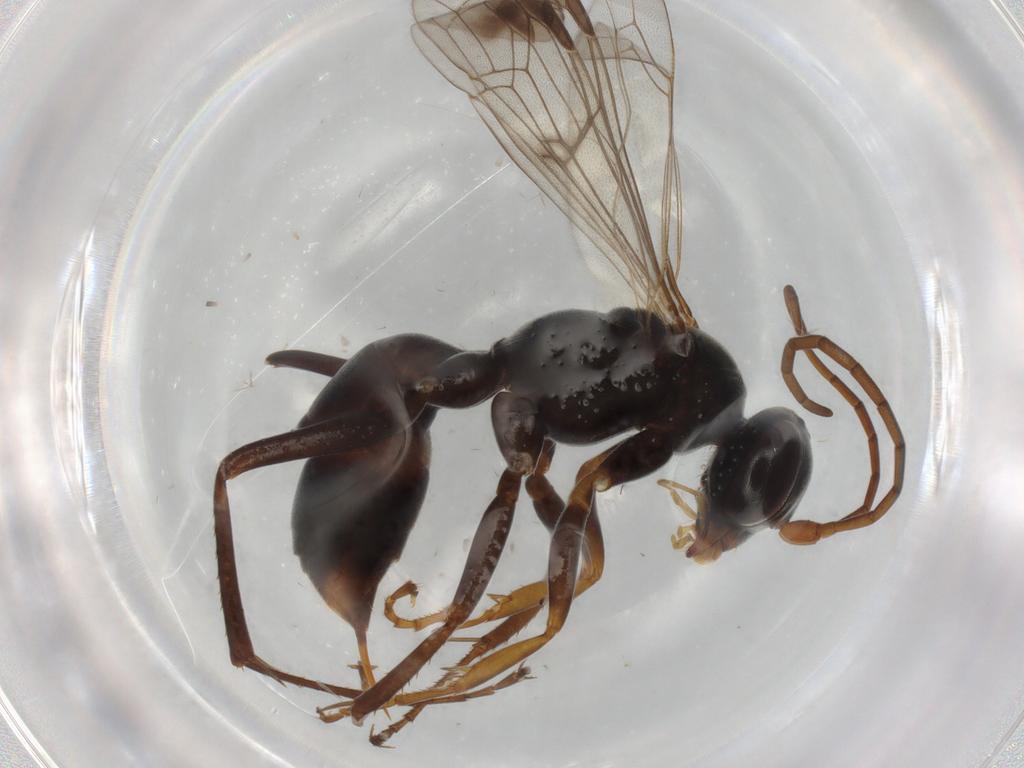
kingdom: Animalia
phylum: Arthropoda
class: Insecta
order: Hymenoptera
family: Pompilidae
